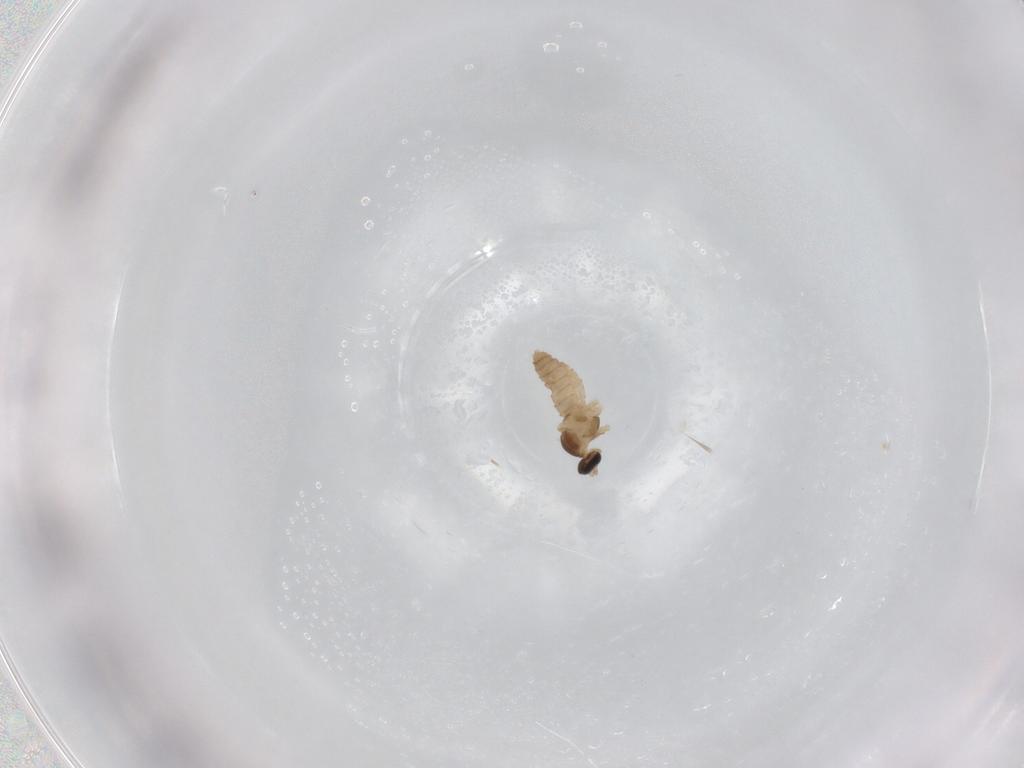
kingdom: Animalia
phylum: Arthropoda
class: Insecta
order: Diptera
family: Cecidomyiidae
